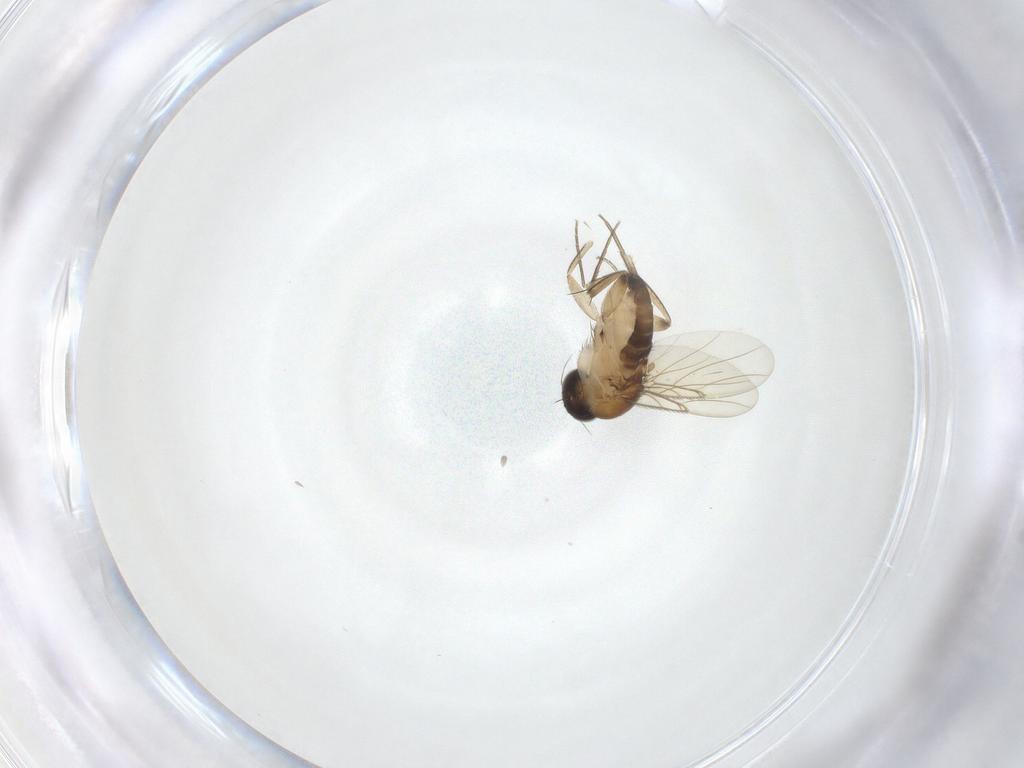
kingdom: Animalia
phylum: Arthropoda
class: Insecta
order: Diptera
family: Phoridae
